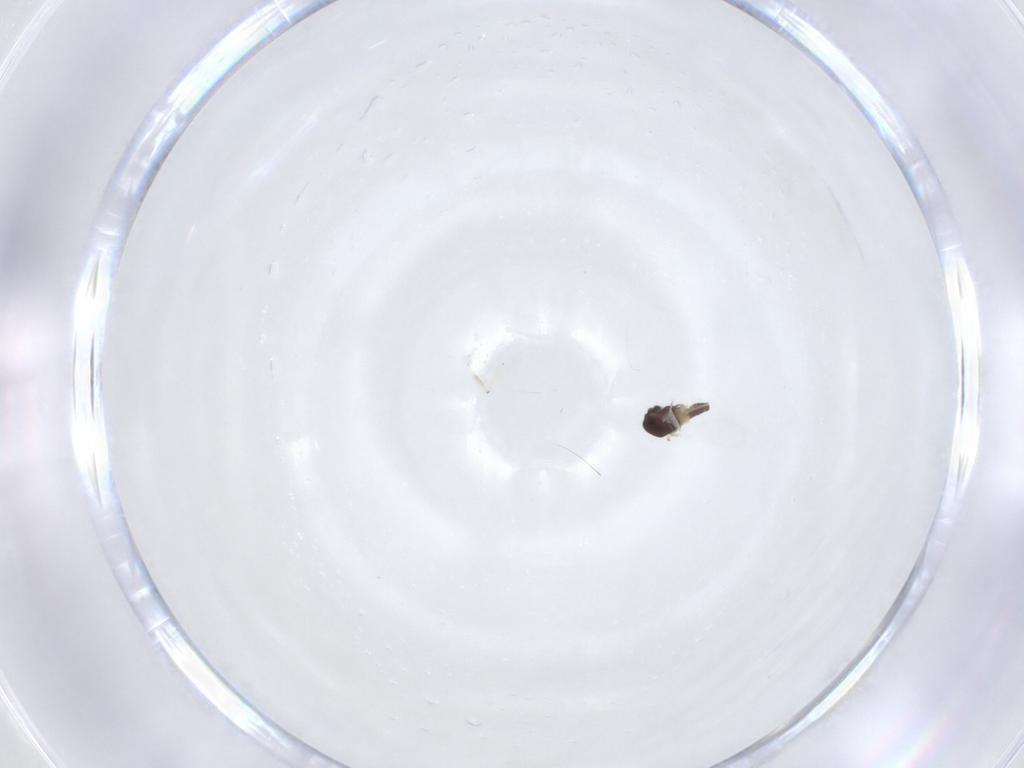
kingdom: Animalia
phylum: Arthropoda
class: Insecta
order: Diptera
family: Chironomidae
